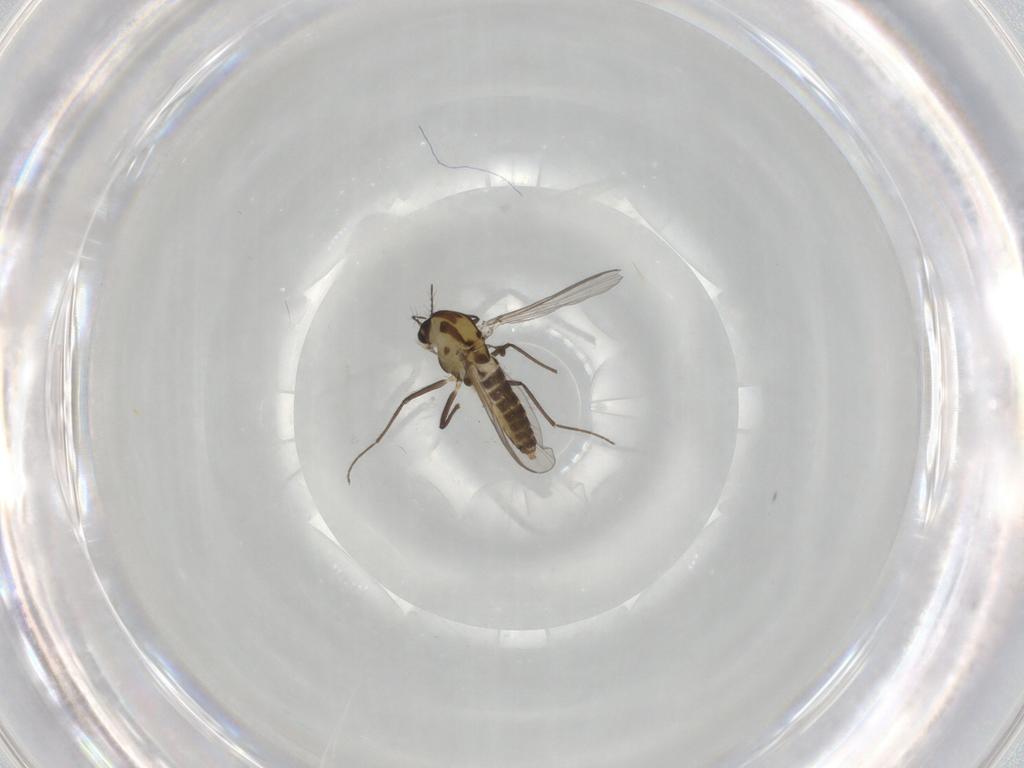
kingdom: Animalia
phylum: Arthropoda
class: Insecta
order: Diptera
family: Chironomidae
